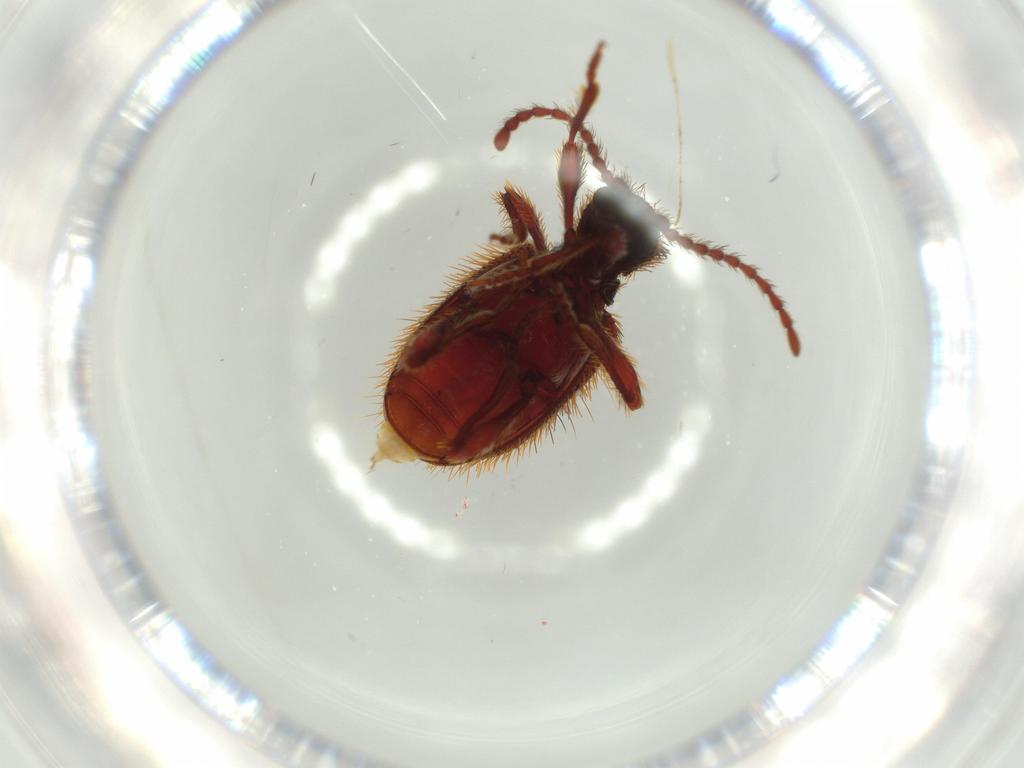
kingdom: Animalia
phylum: Arthropoda
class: Insecta
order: Coleoptera
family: Ptinidae
